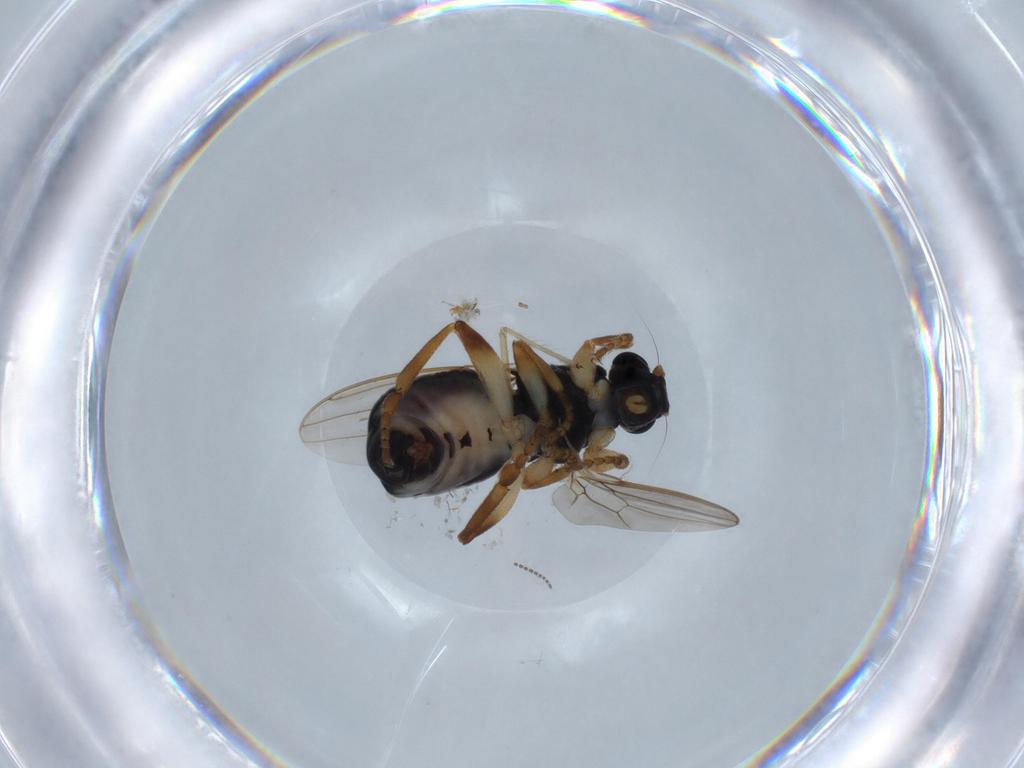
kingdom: Animalia
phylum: Arthropoda
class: Insecta
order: Diptera
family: Sphaeroceridae
